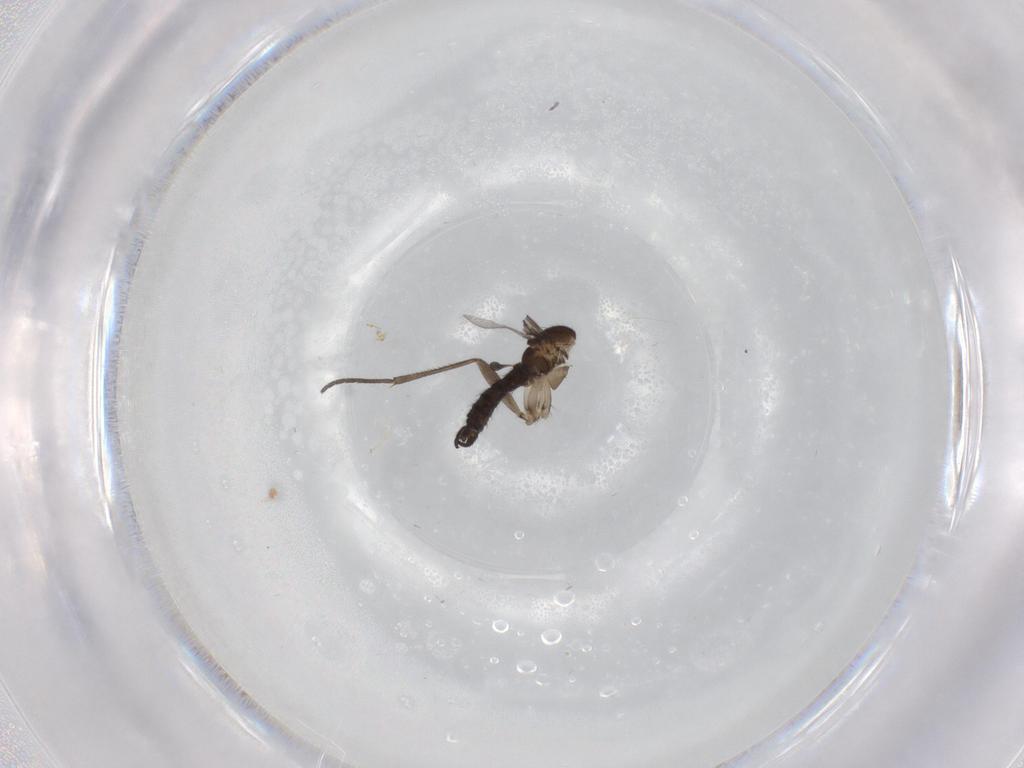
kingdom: Animalia
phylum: Arthropoda
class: Insecta
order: Diptera
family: Sciaridae
